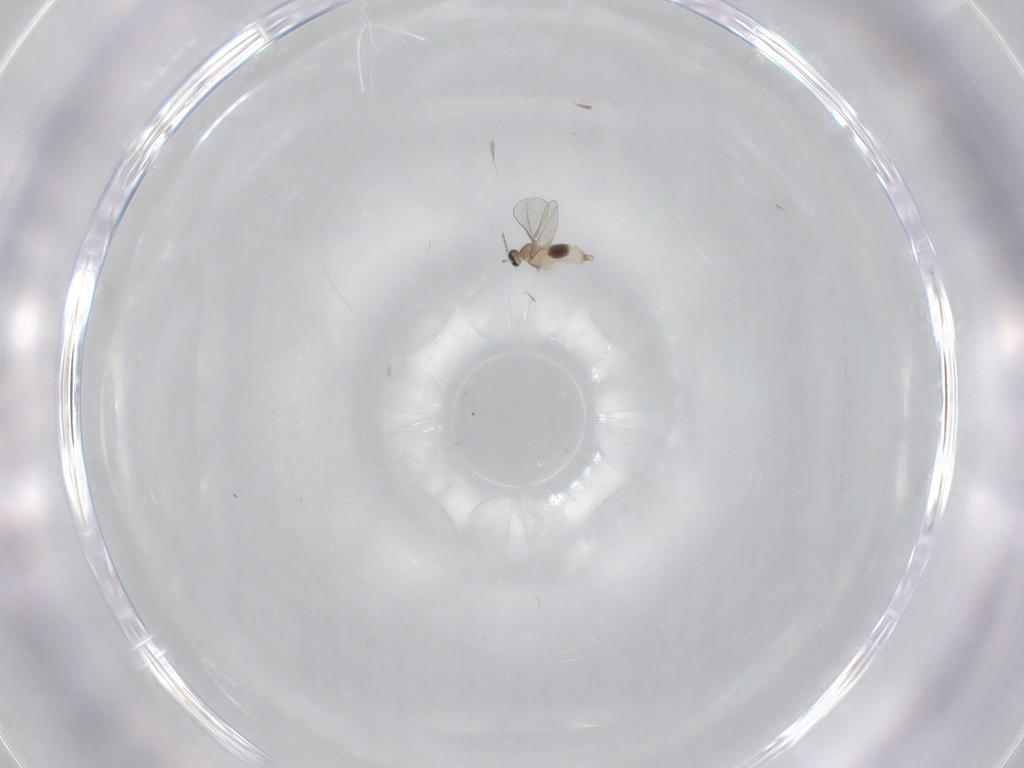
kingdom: Animalia
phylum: Arthropoda
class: Insecta
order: Diptera
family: Cecidomyiidae
